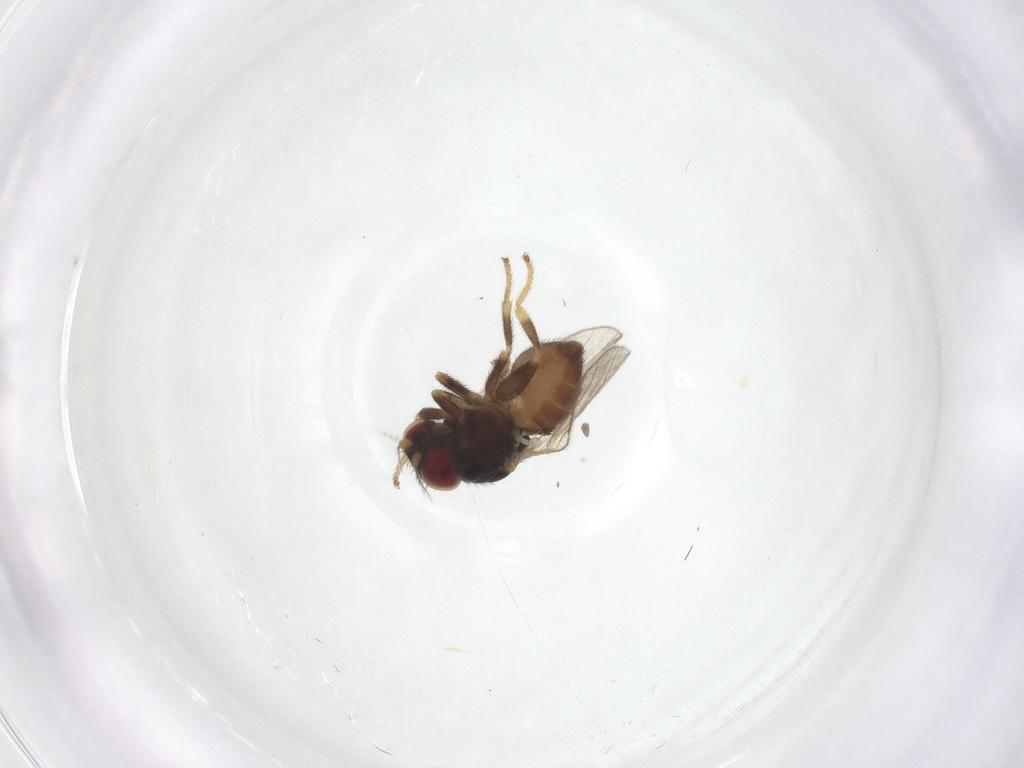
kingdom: Animalia
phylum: Arthropoda
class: Insecta
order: Diptera
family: Chloropidae
